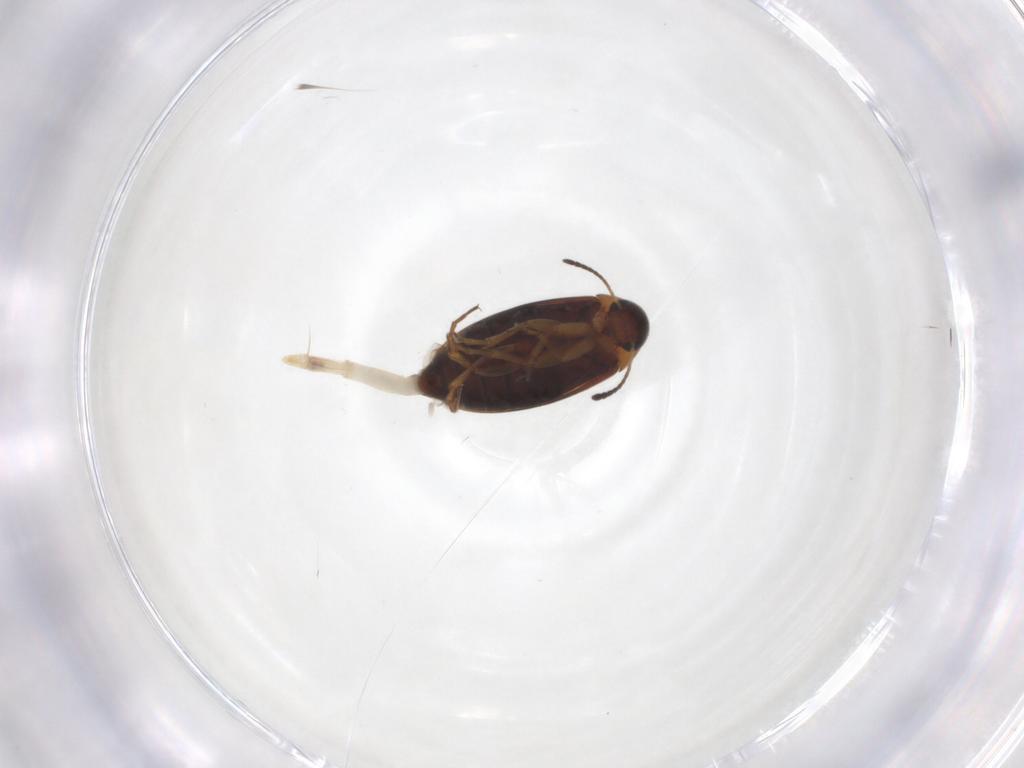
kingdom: Animalia
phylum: Arthropoda
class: Insecta
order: Coleoptera
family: Scraptiidae
